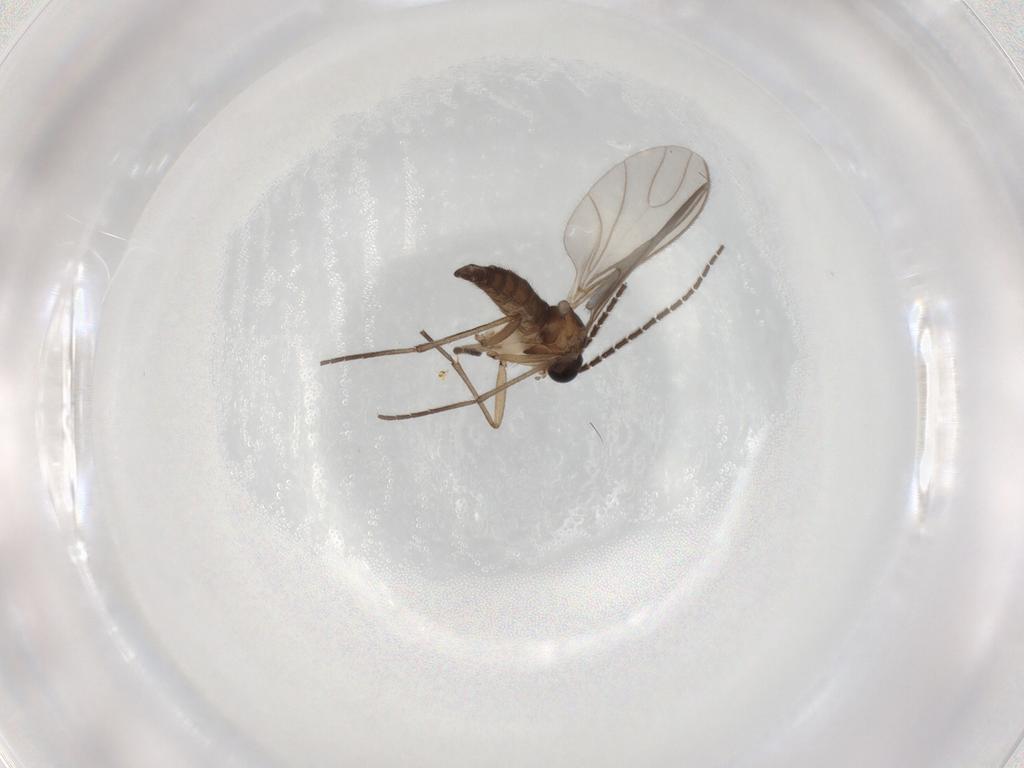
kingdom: Animalia
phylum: Arthropoda
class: Insecta
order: Diptera
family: Sciaridae
